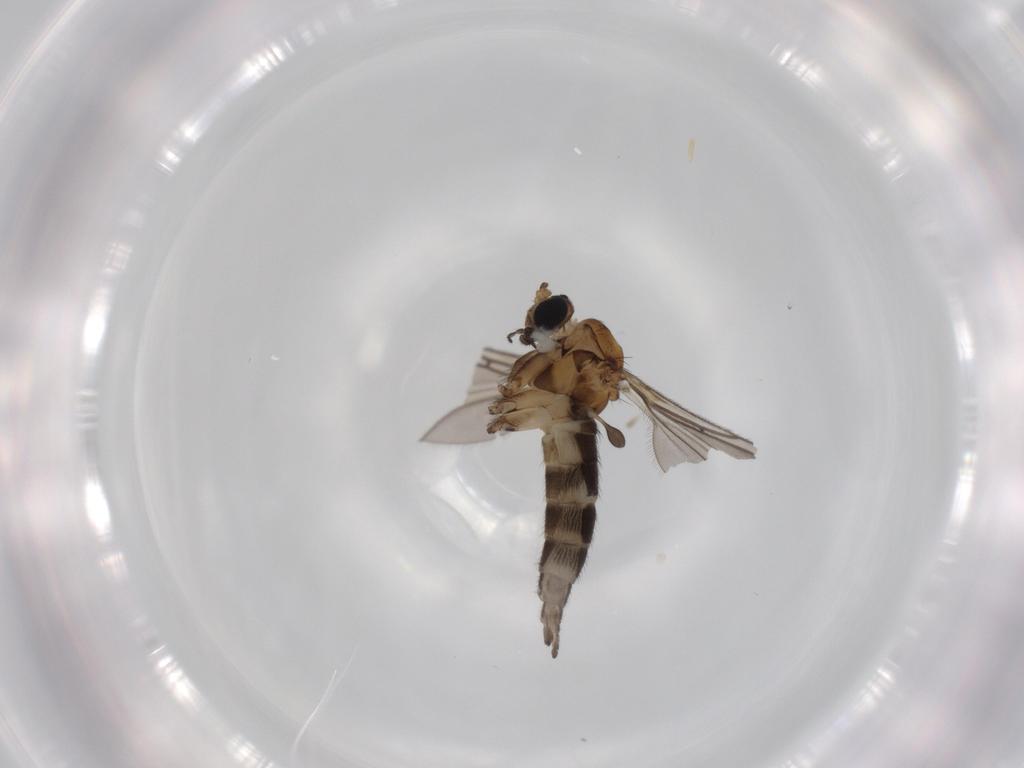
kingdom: Animalia
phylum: Arthropoda
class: Insecta
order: Diptera
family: Sciaridae
